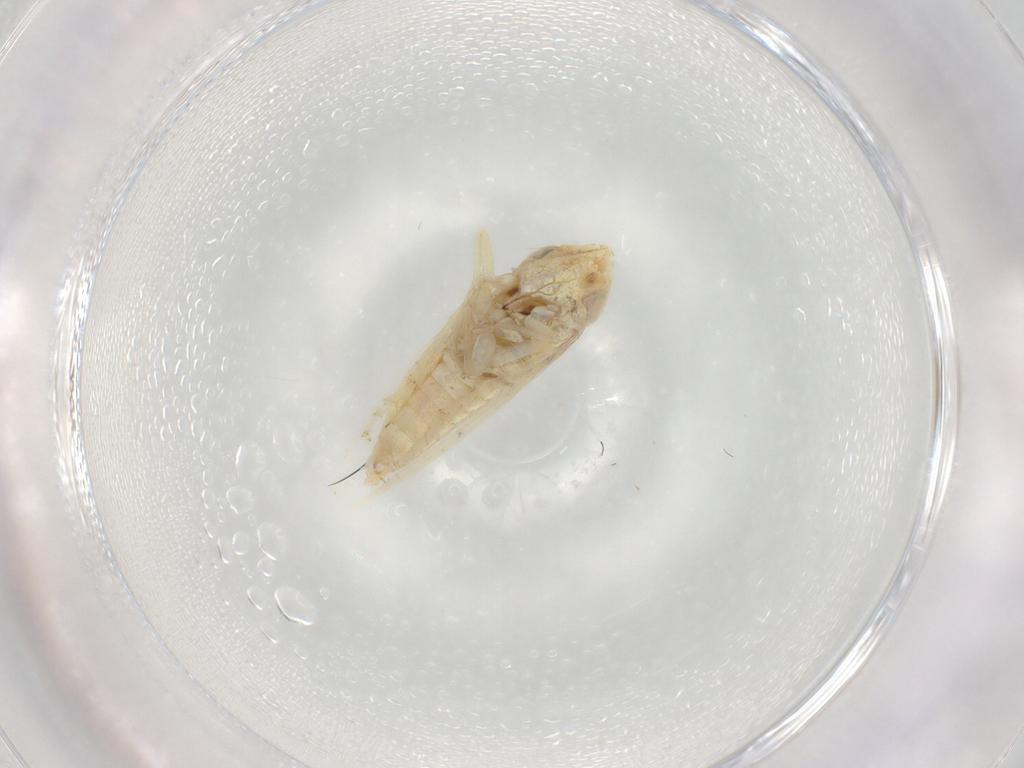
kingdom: Animalia
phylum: Arthropoda
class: Insecta
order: Hemiptera
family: Cicadellidae
